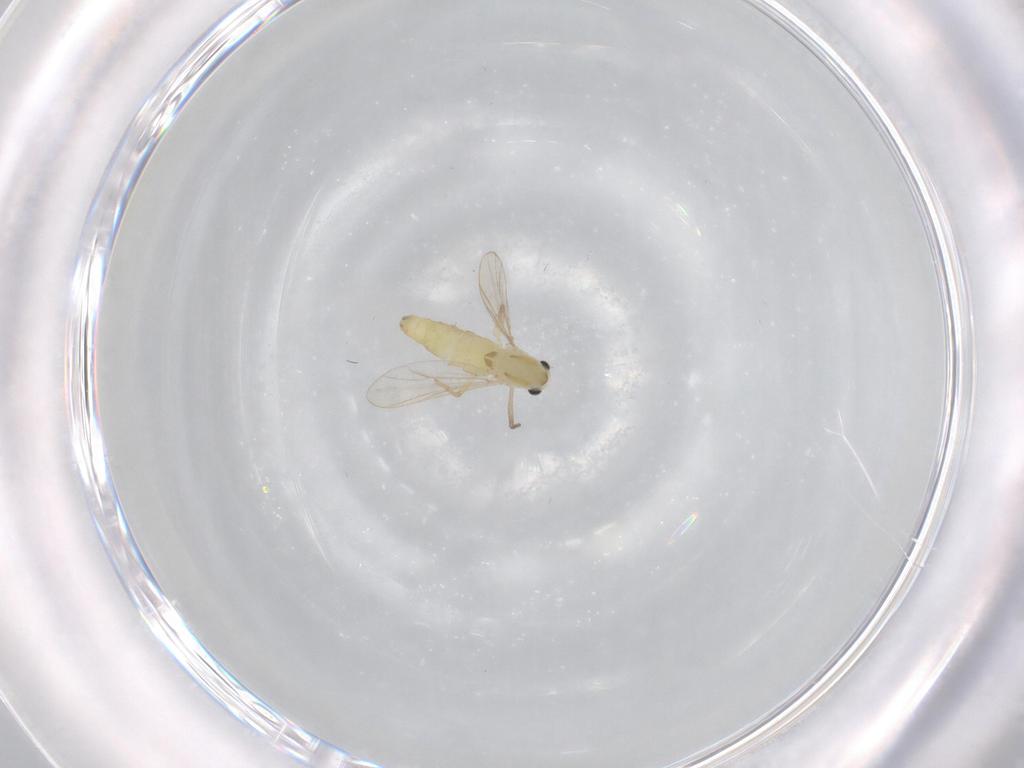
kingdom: Animalia
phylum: Arthropoda
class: Insecta
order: Diptera
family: Chironomidae
